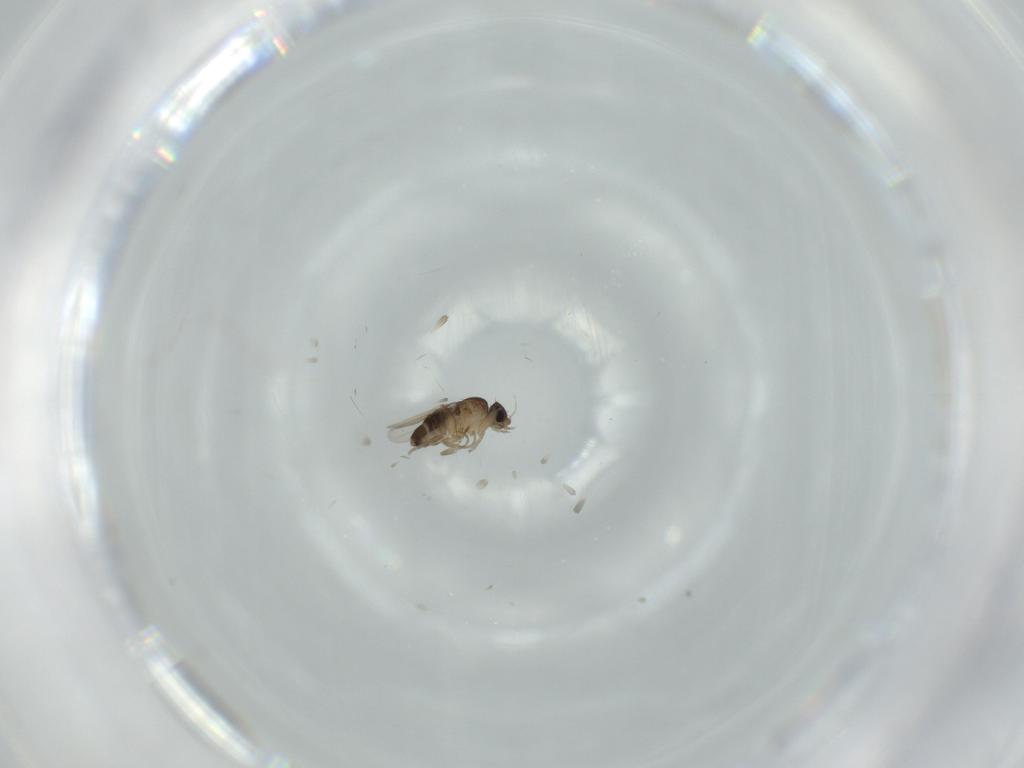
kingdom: Animalia
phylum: Arthropoda
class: Insecta
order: Diptera
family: Phoridae
